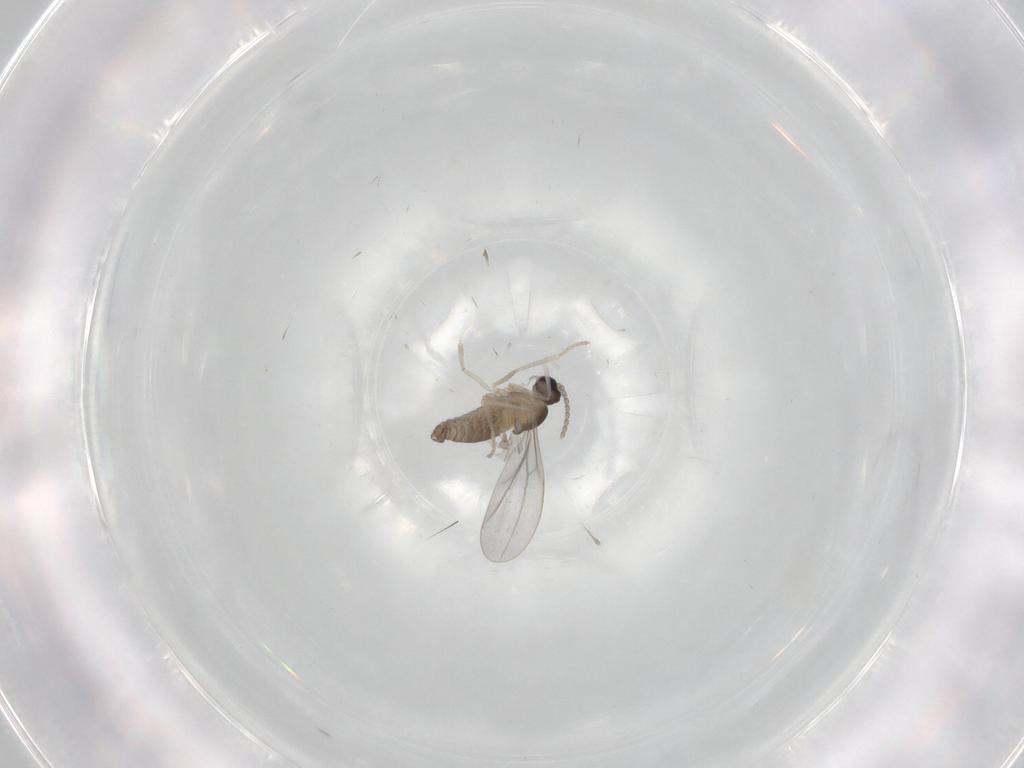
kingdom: Animalia
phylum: Arthropoda
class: Insecta
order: Diptera
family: Cecidomyiidae
